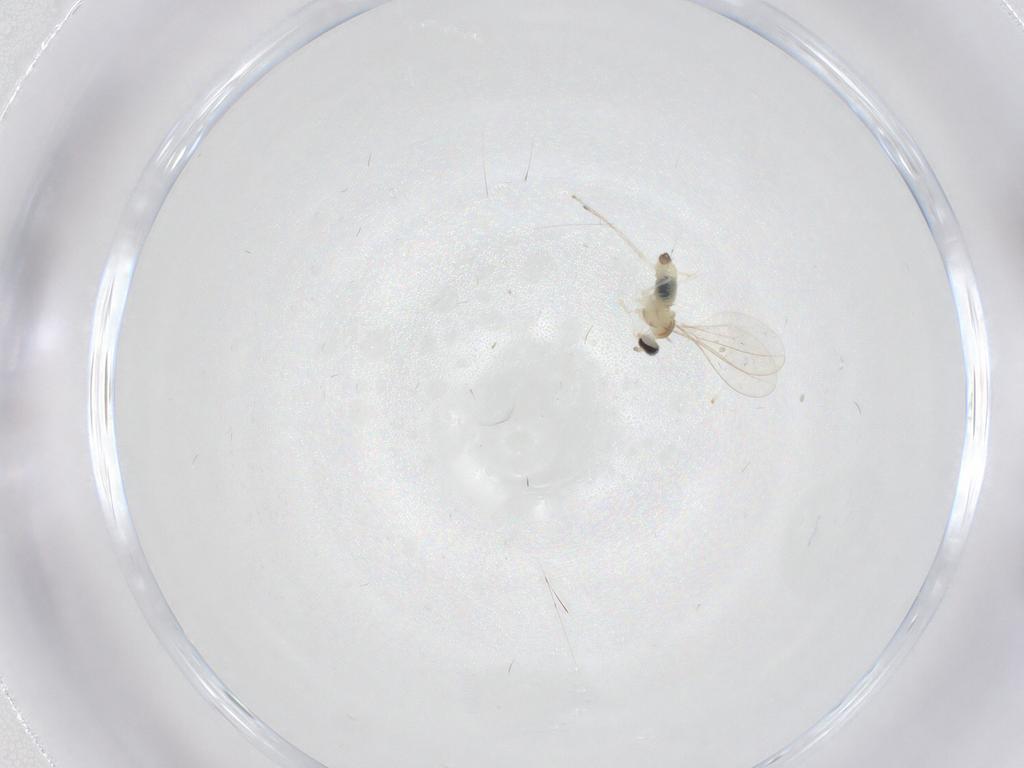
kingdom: Animalia
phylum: Arthropoda
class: Insecta
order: Diptera
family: Cecidomyiidae
